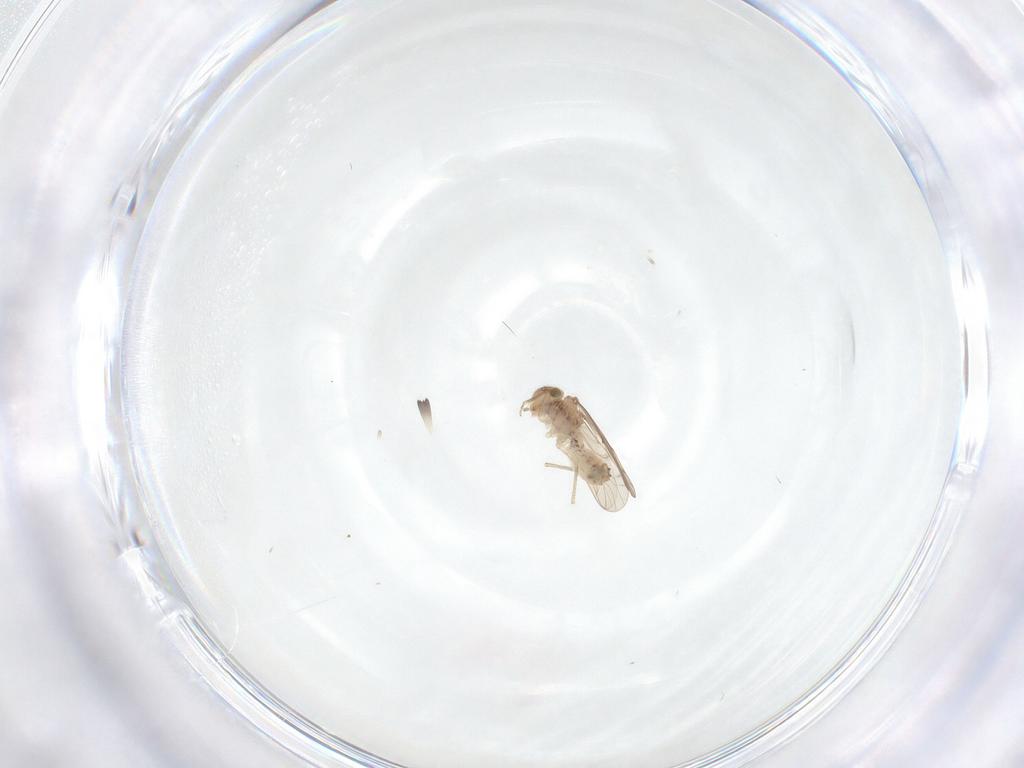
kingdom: Animalia
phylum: Arthropoda
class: Insecta
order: Psocodea
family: Ectopsocidae
